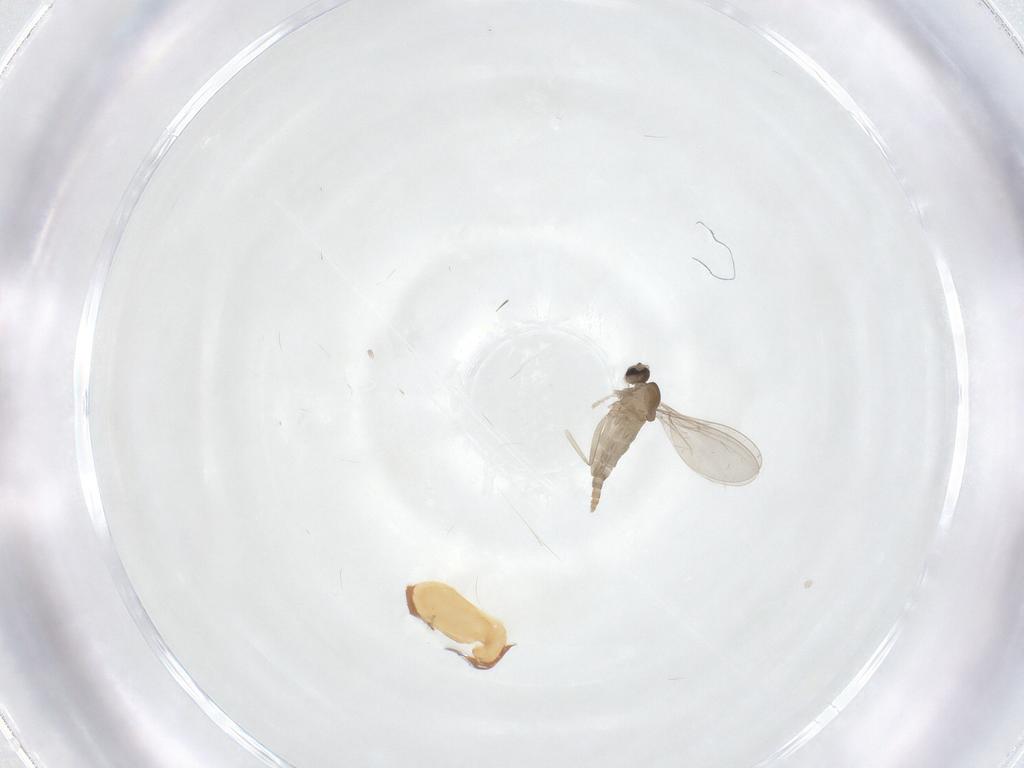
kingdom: Animalia
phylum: Arthropoda
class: Insecta
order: Diptera
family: Cecidomyiidae
